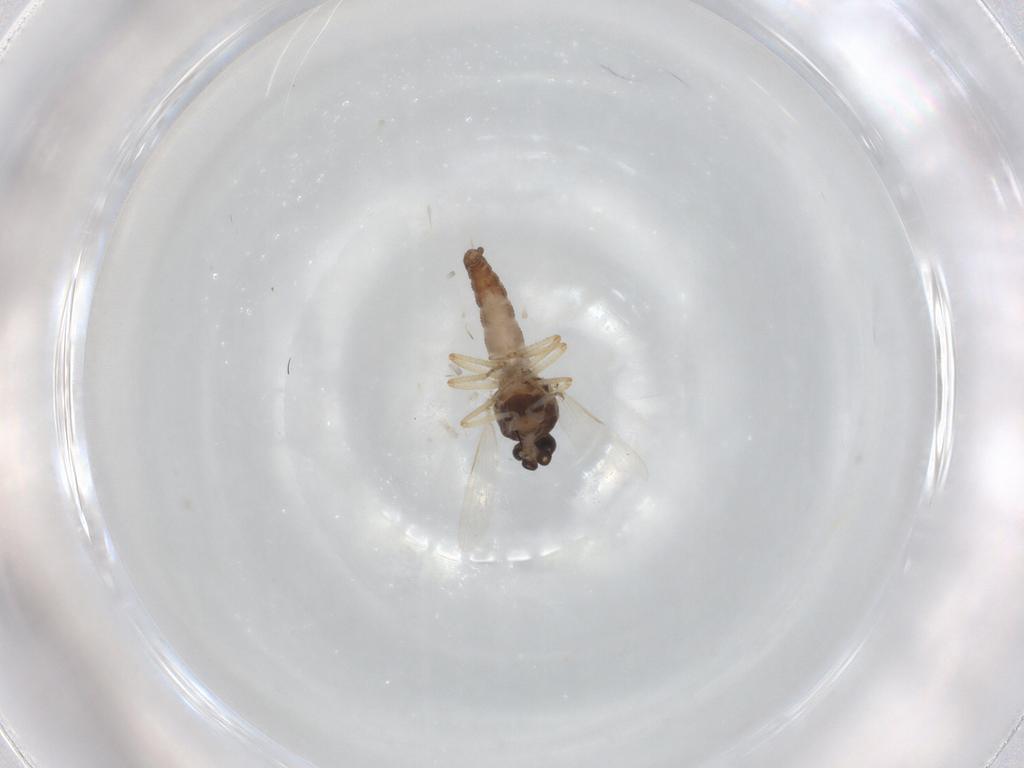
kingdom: Animalia
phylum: Arthropoda
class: Insecta
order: Diptera
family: Ceratopogonidae
